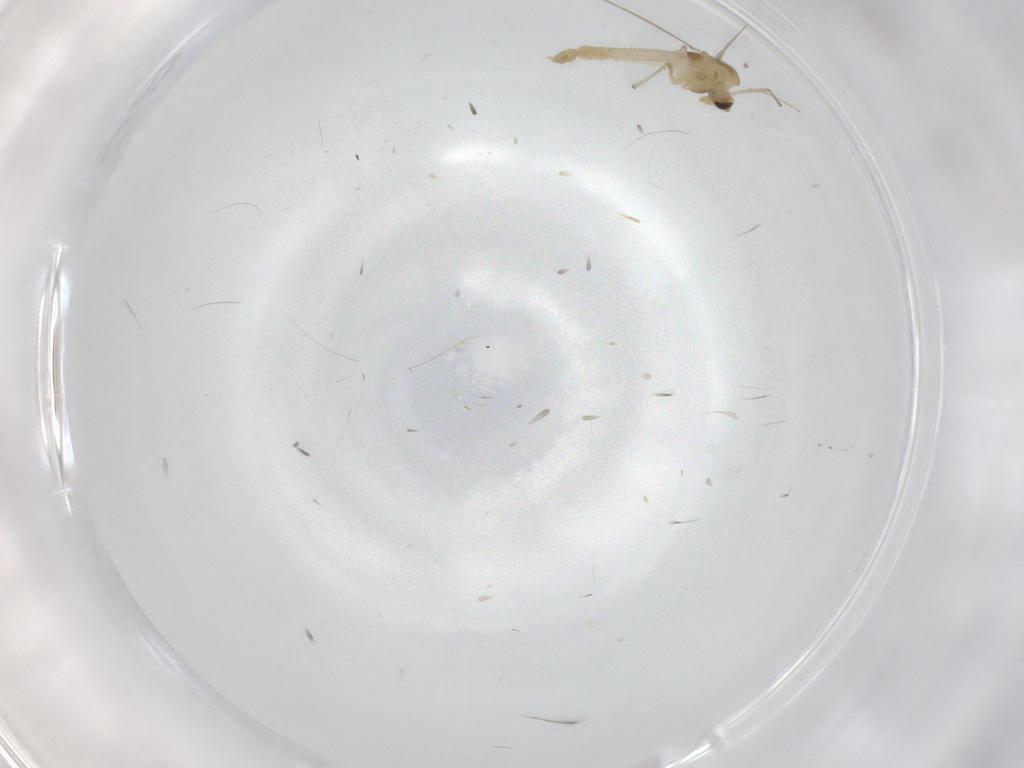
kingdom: Animalia
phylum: Arthropoda
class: Insecta
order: Diptera
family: Chironomidae
